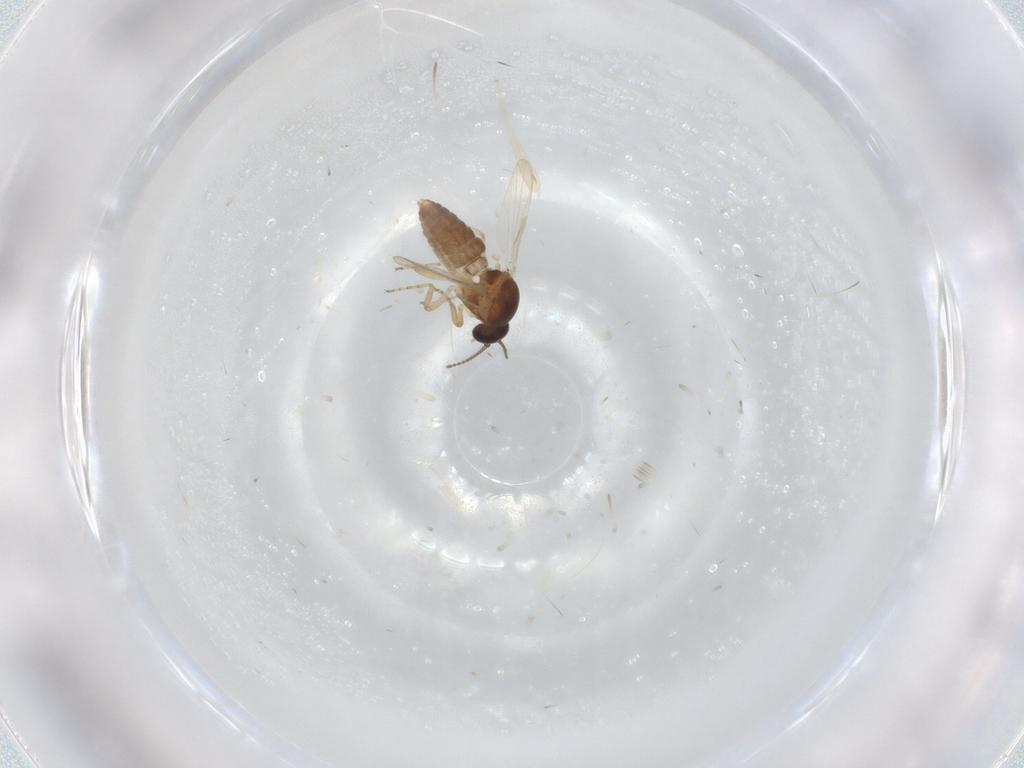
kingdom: Animalia
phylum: Arthropoda
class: Insecta
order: Diptera
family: Ceratopogonidae
